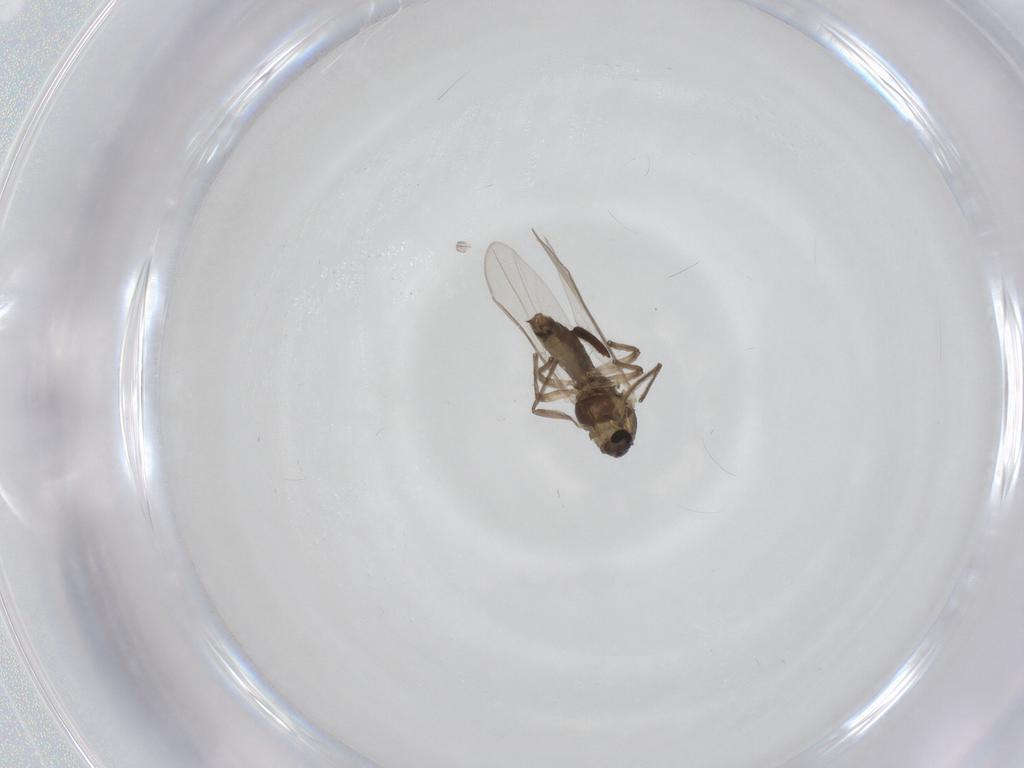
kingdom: Animalia
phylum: Arthropoda
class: Insecta
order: Diptera
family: Chironomidae
